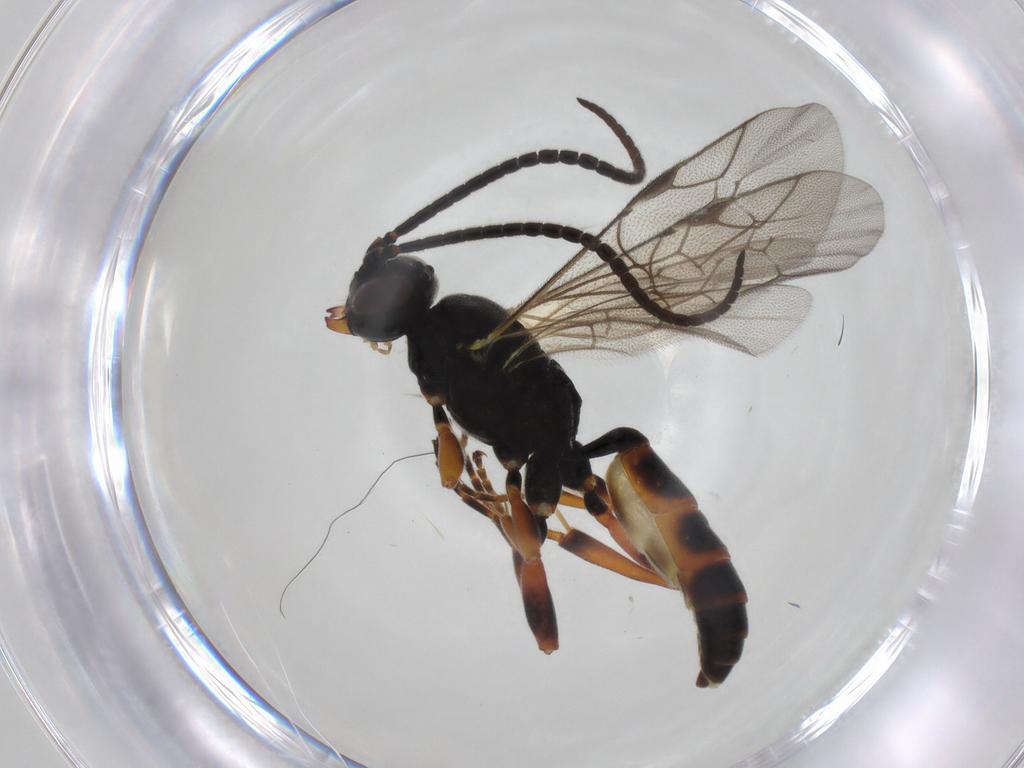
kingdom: Animalia
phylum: Arthropoda
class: Insecta
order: Hymenoptera
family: Ichneumonidae
